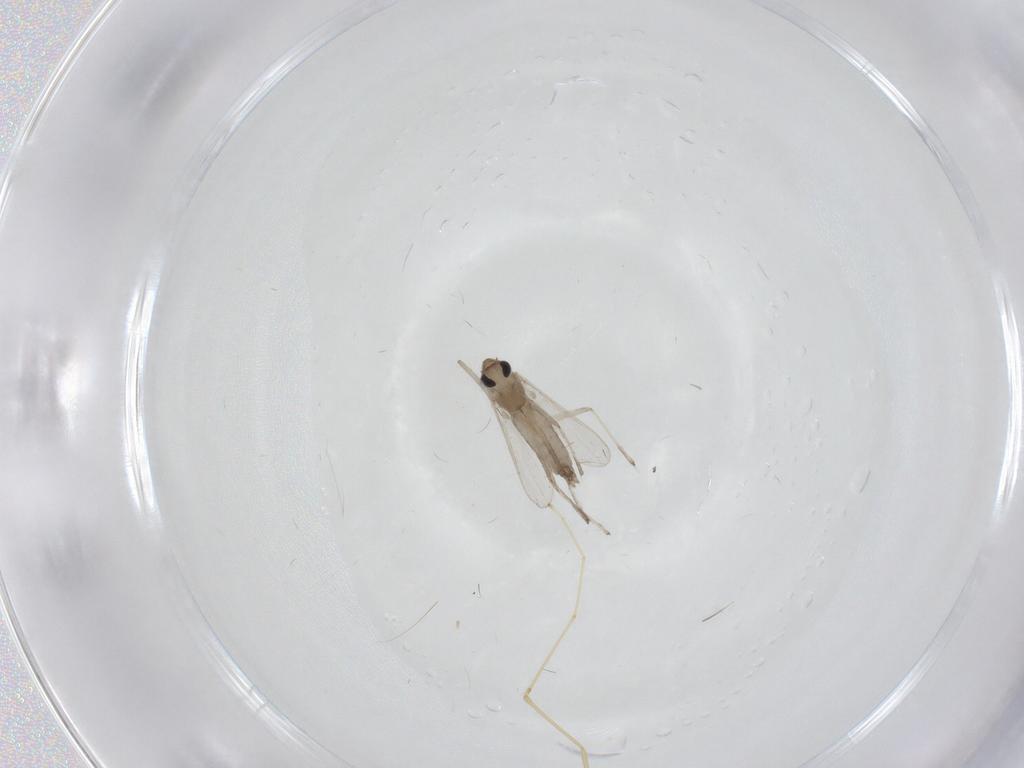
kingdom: Animalia
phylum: Arthropoda
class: Insecta
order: Diptera
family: Chironomidae
